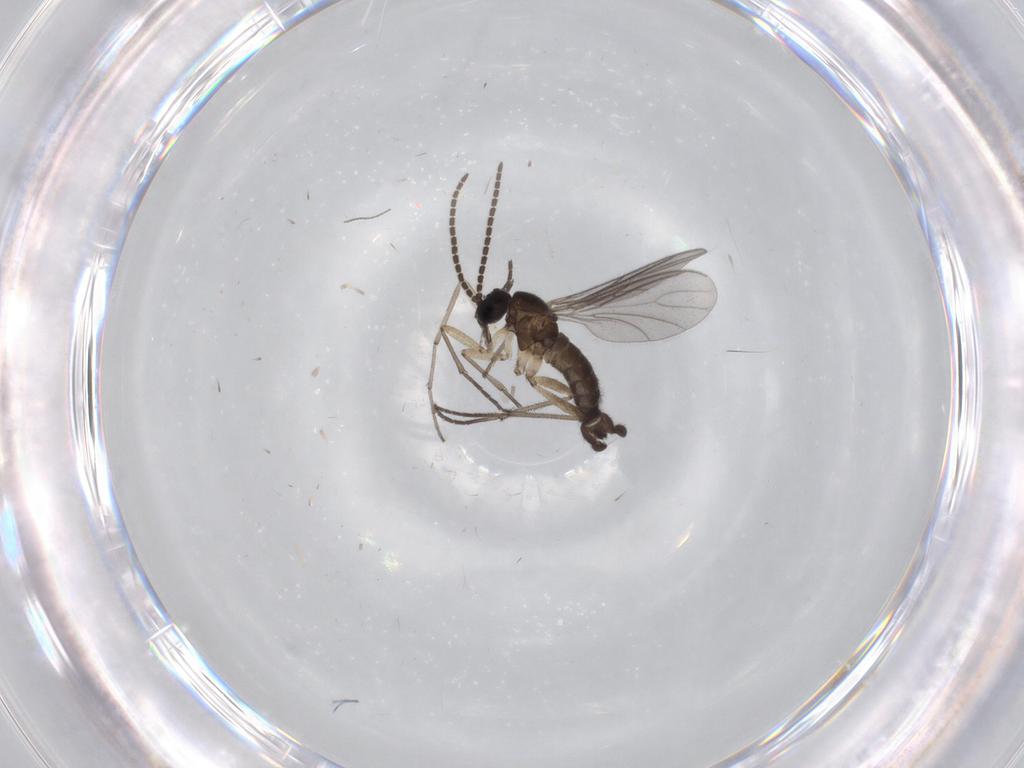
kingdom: Animalia
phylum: Arthropoda
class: Insecta
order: Diptera
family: Sciaridae
